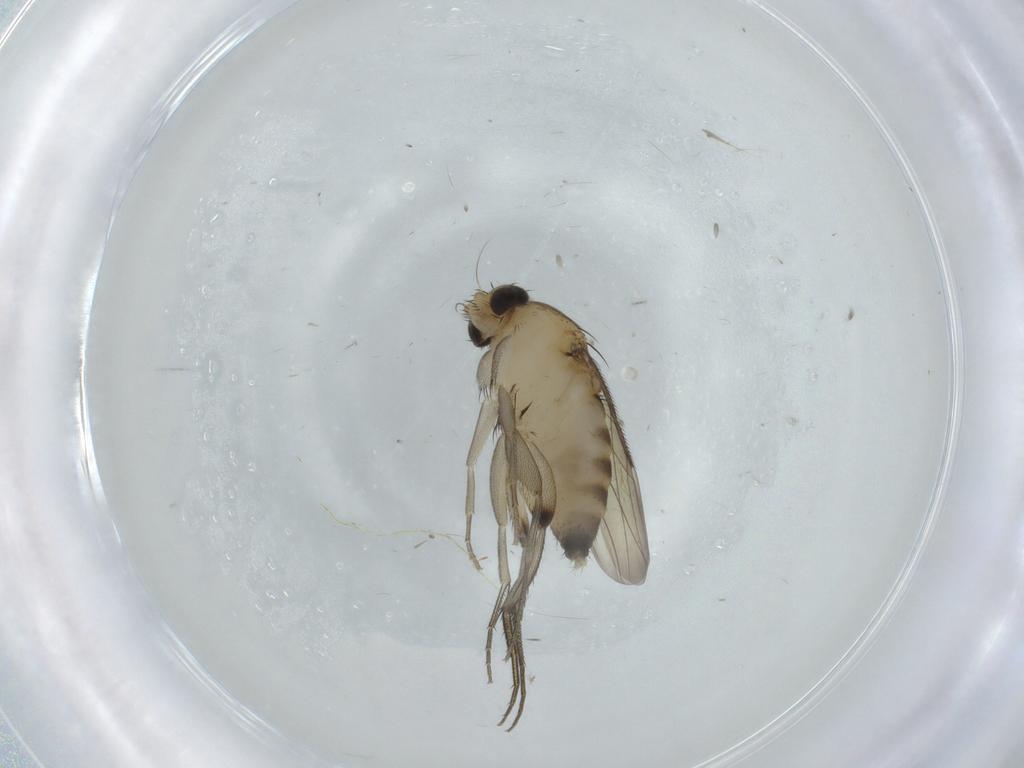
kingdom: Animalia
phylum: Arthropoda
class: Insecta
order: Diptera
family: Phoridae
